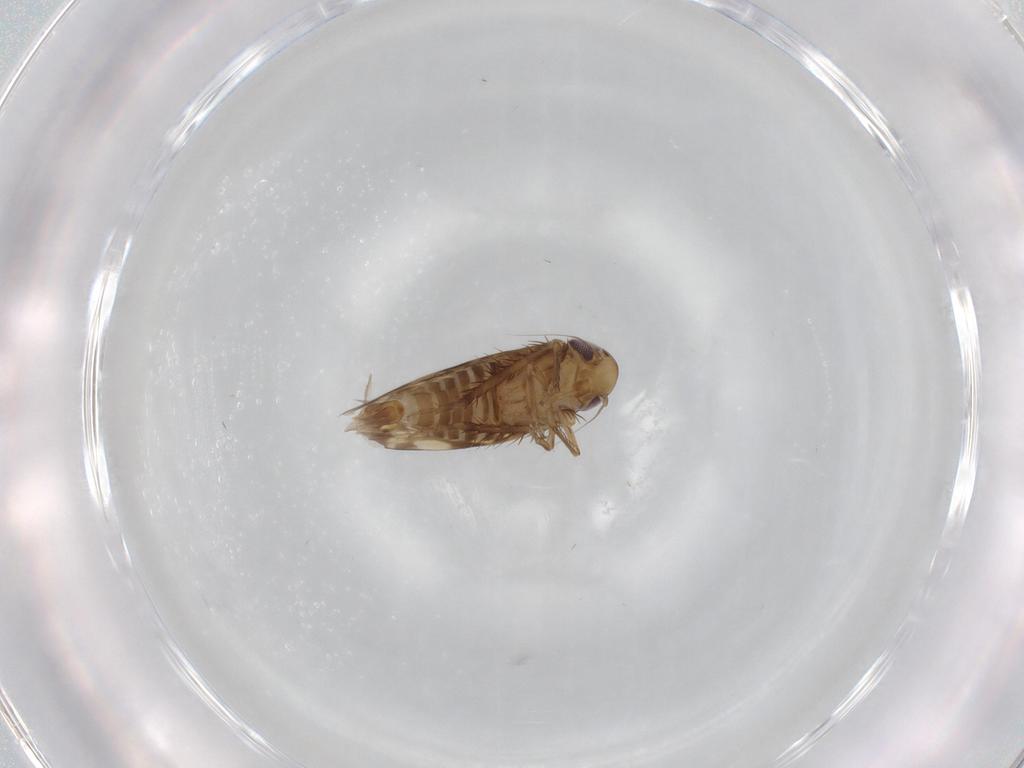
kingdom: Animalia
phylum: Arthropoda
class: Insecta
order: Hemiptera
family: Cicadellidae
